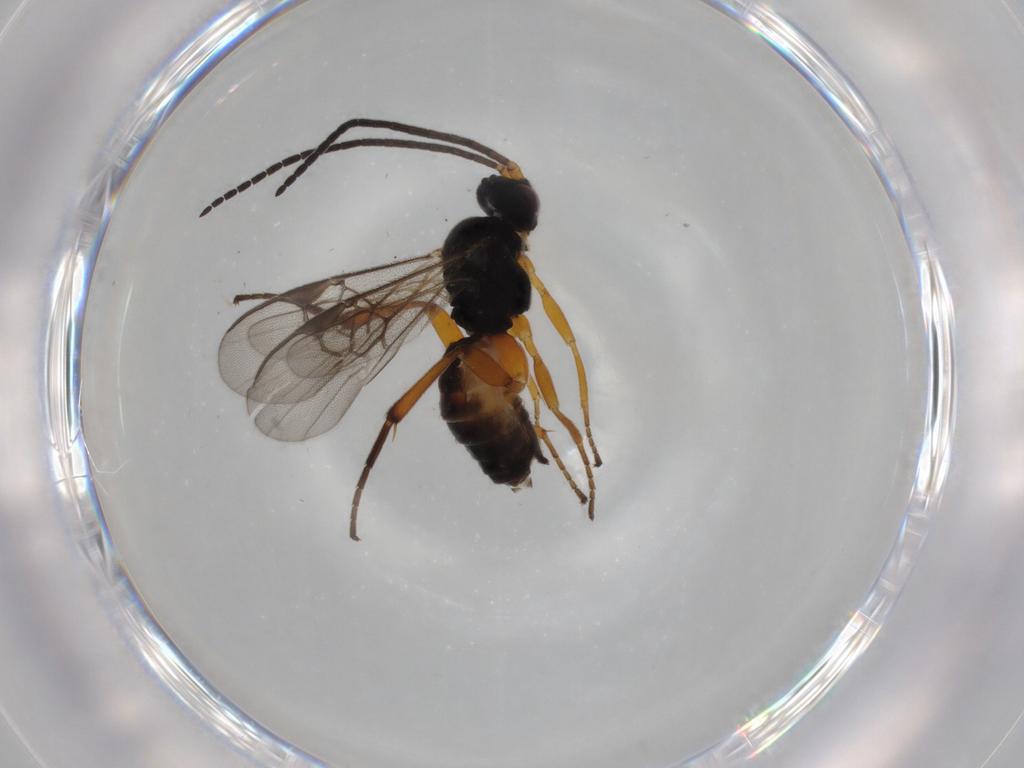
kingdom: Animalia
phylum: Arthropoda
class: Insecta
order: Hymenoptera
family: Braconidae
